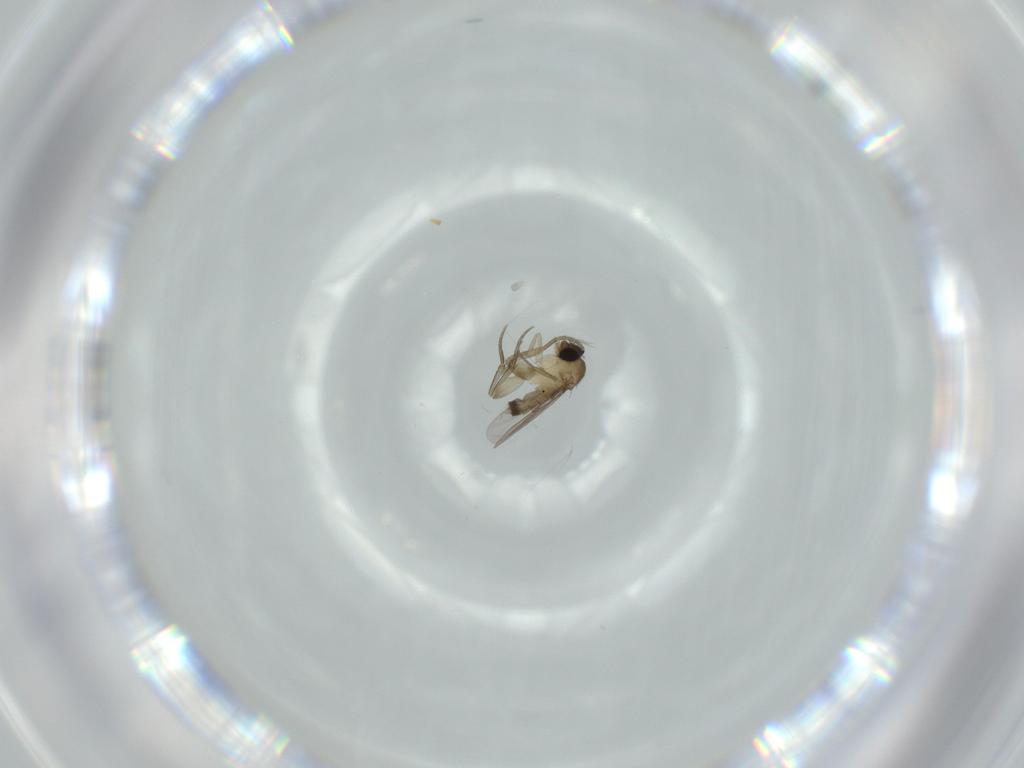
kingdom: Animalia
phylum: Arthropoda
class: Insecta
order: Diptera
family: Phoridae
